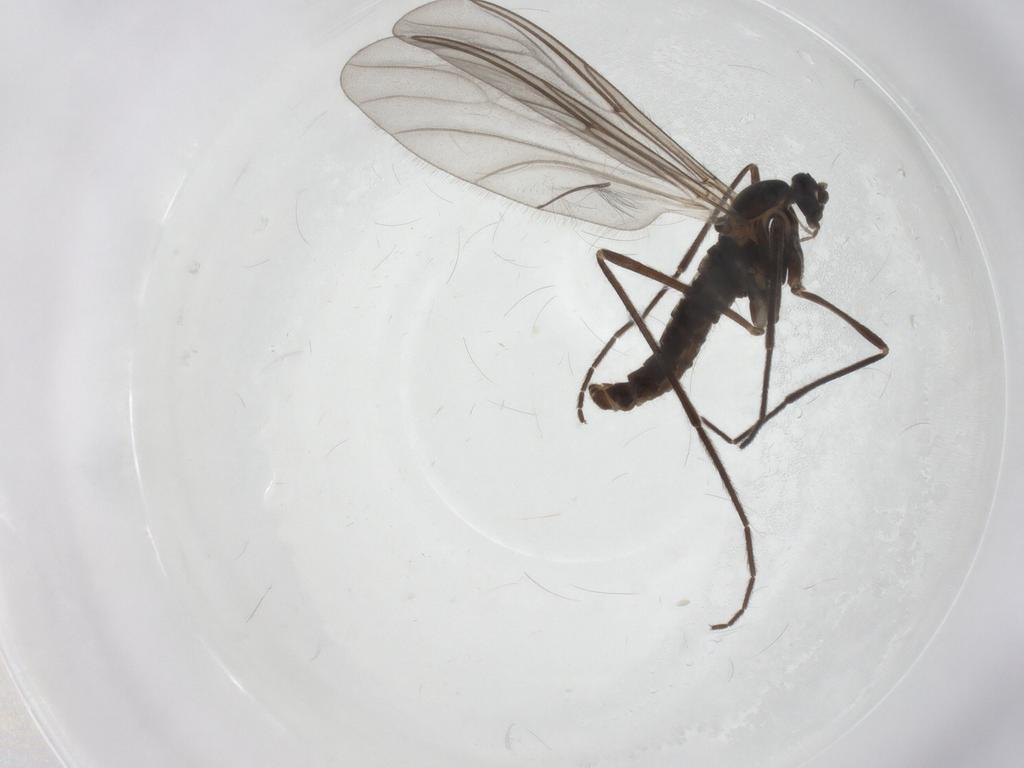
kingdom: Animalia
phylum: Arthropoda
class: Insecta
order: Diptera
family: Cecidomyiidae
